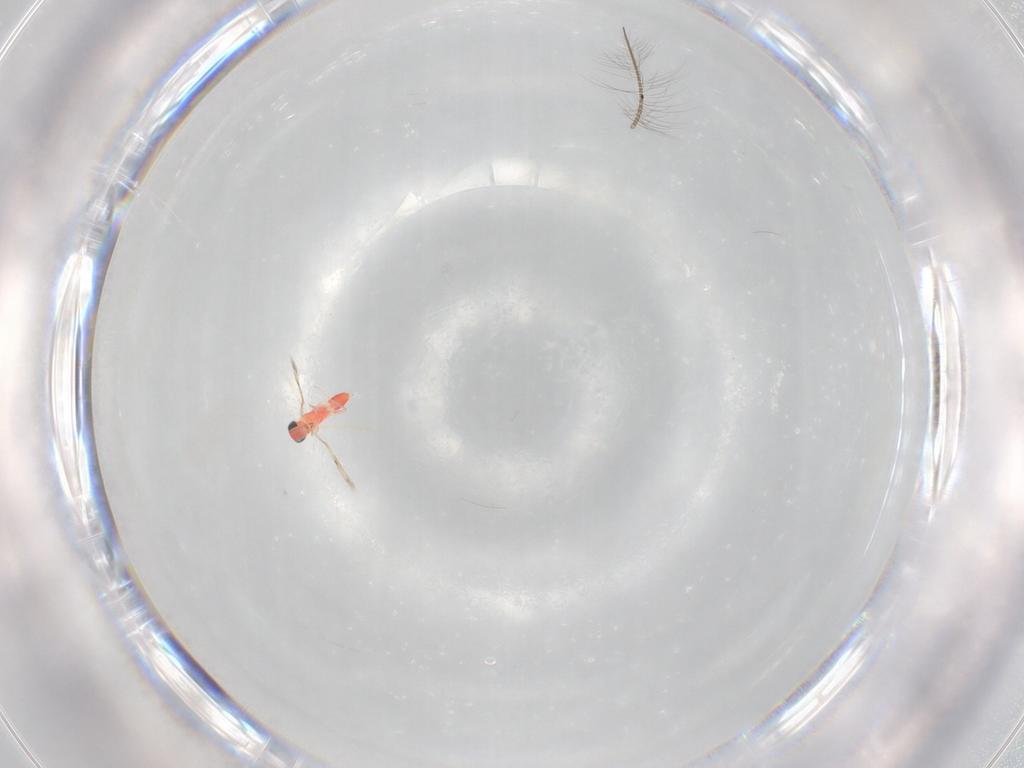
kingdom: Animalia
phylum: Arthropoda
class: Insecta
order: Hymenoptera
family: Trichogrammatidae
